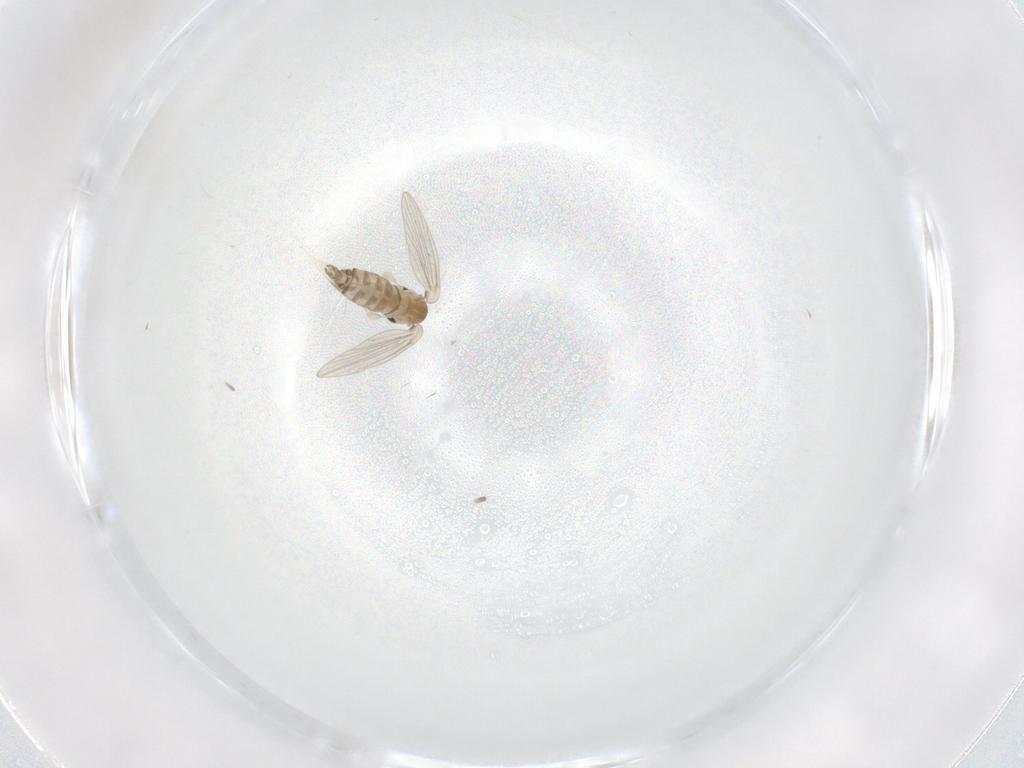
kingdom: Animalia
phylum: Arthropoda
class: Insecta
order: Diptera
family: Psychodidae
